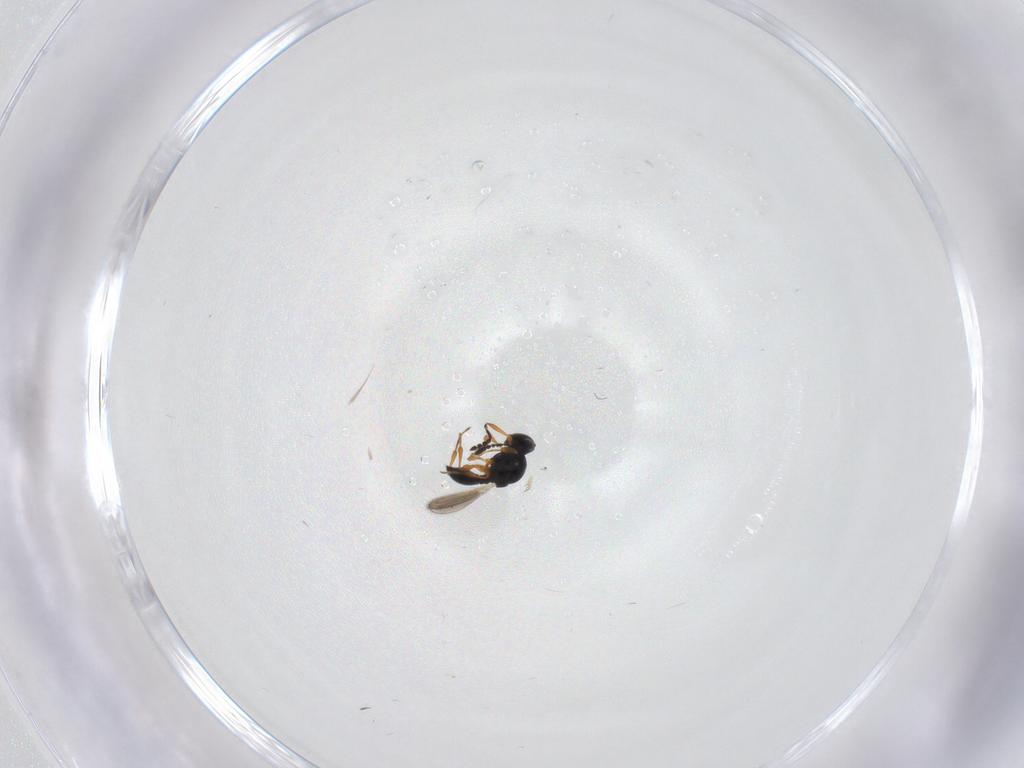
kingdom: Animalia
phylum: Arthropoda
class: Insecta
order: Hymenoptera
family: Platygastridae
